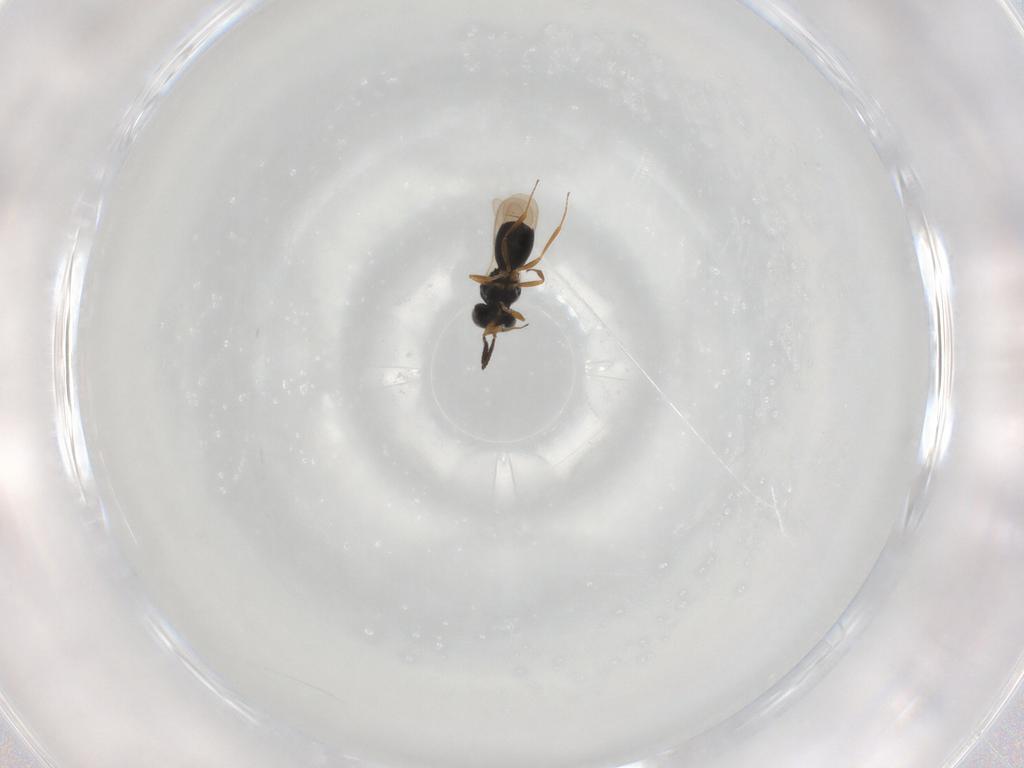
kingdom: Animalia
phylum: Arthropoda
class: Insecta
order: Hymenoptera
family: Scelionidae
